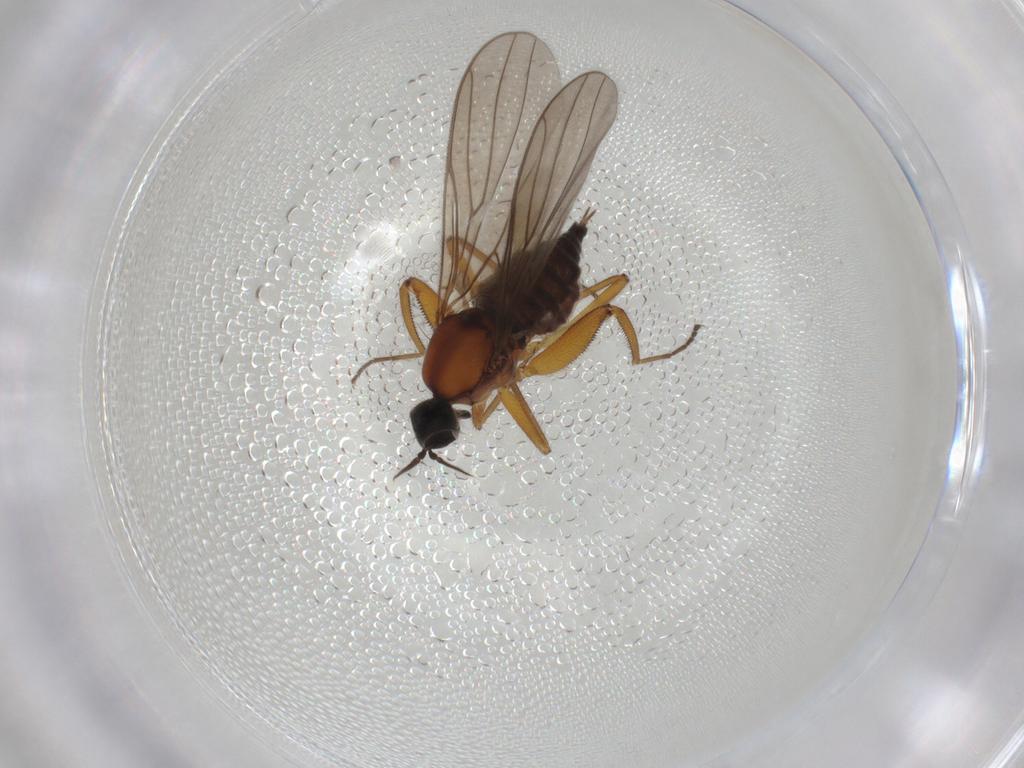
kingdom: Animalia
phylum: Arthropoda
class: Insecta
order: Diptera
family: Hybotidae
